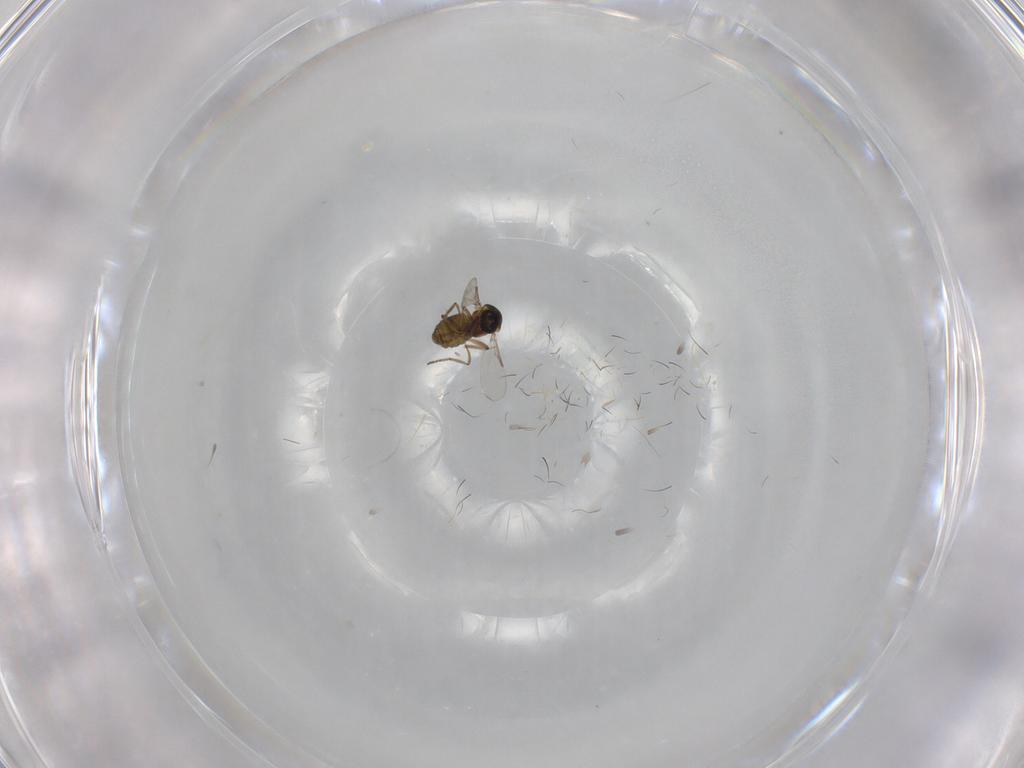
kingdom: Animalia
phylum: Arthropoda
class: Insecta
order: Diptera
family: Ceratopogonidae
